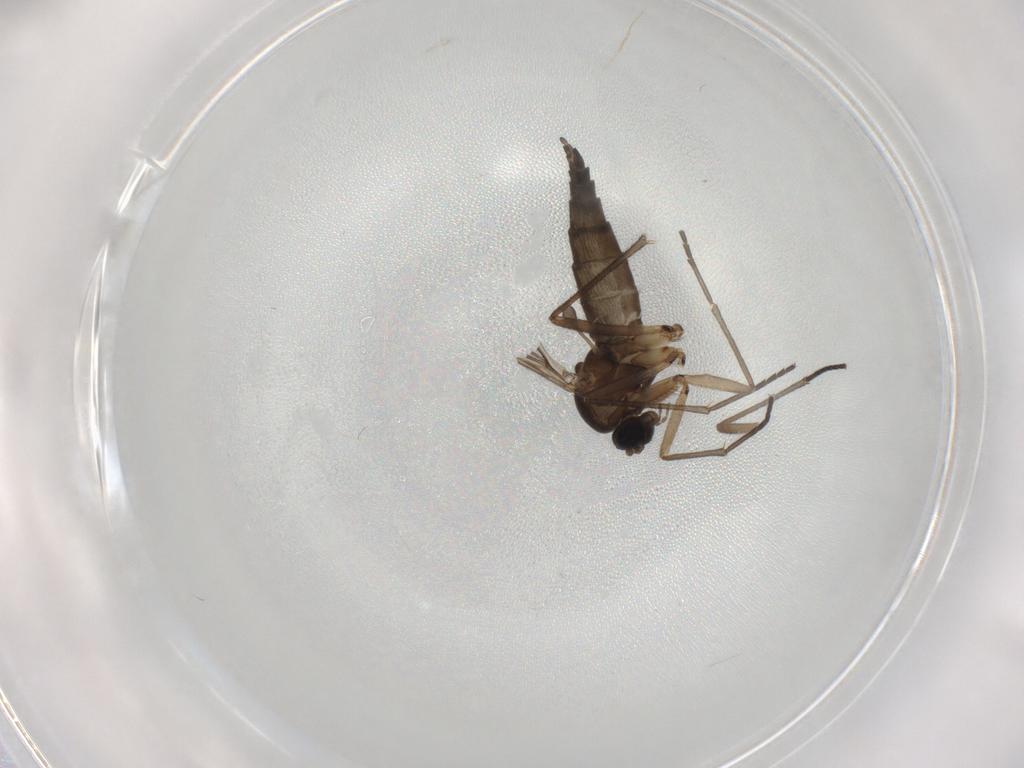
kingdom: Animalia
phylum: Arthropoda
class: Insecta
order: Diptera
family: Sciaridae
